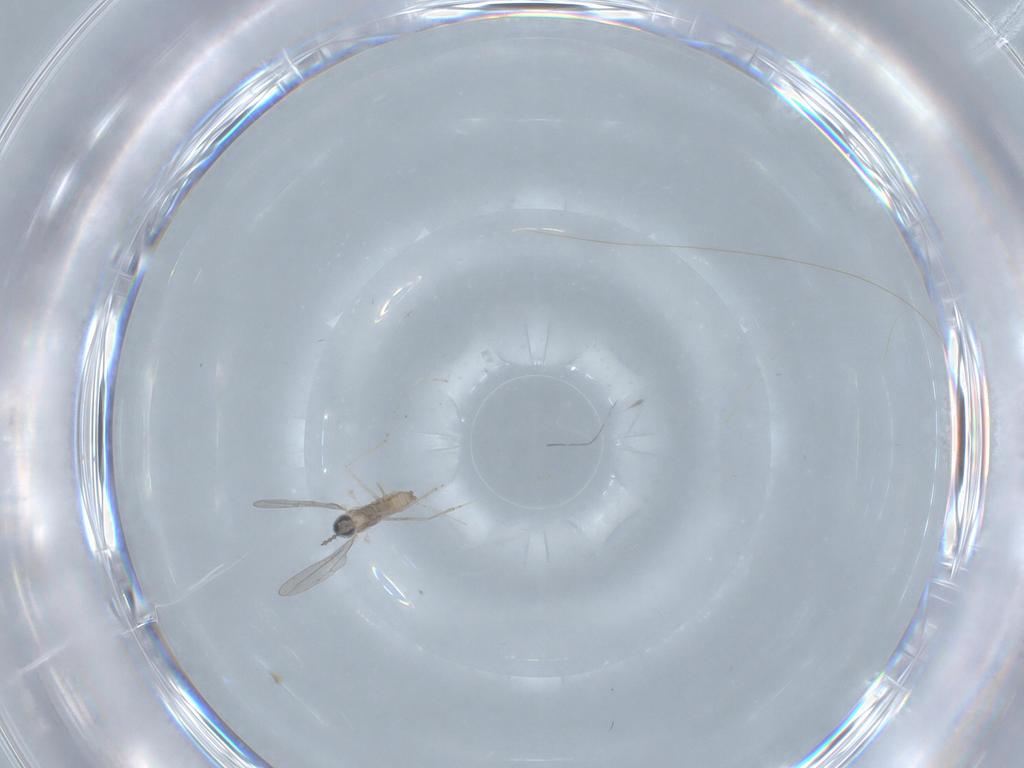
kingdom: Animalia
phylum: Arthropoda
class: Insecta
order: Diptera
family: Cecidomyiidae
